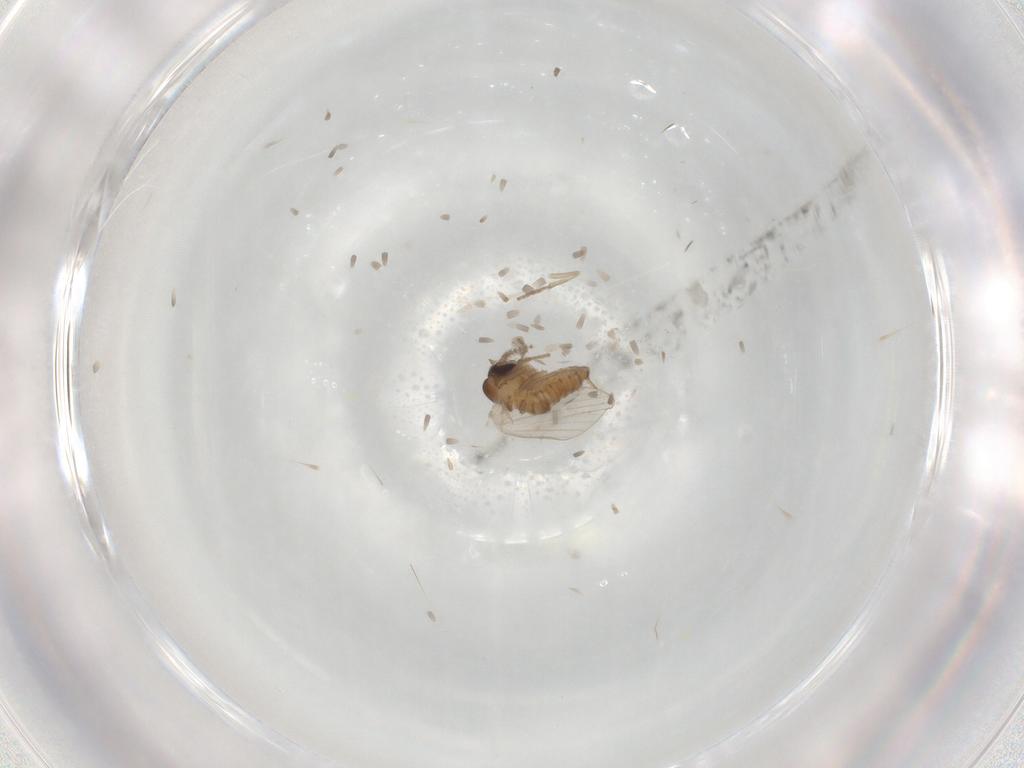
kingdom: Animalia
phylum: Arthropoda
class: Insecta
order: Diptera
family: Psychodidae
